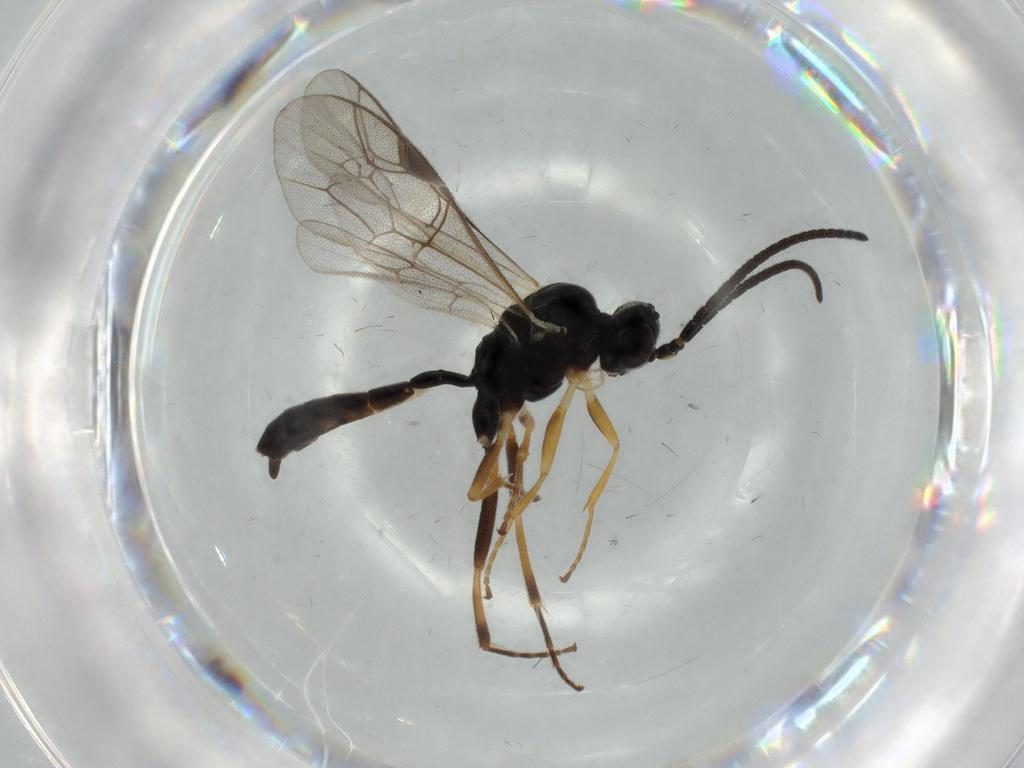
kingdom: Animalia
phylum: Arthropoda
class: Insecta
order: Hymenoptera
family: Ichneumonidae
